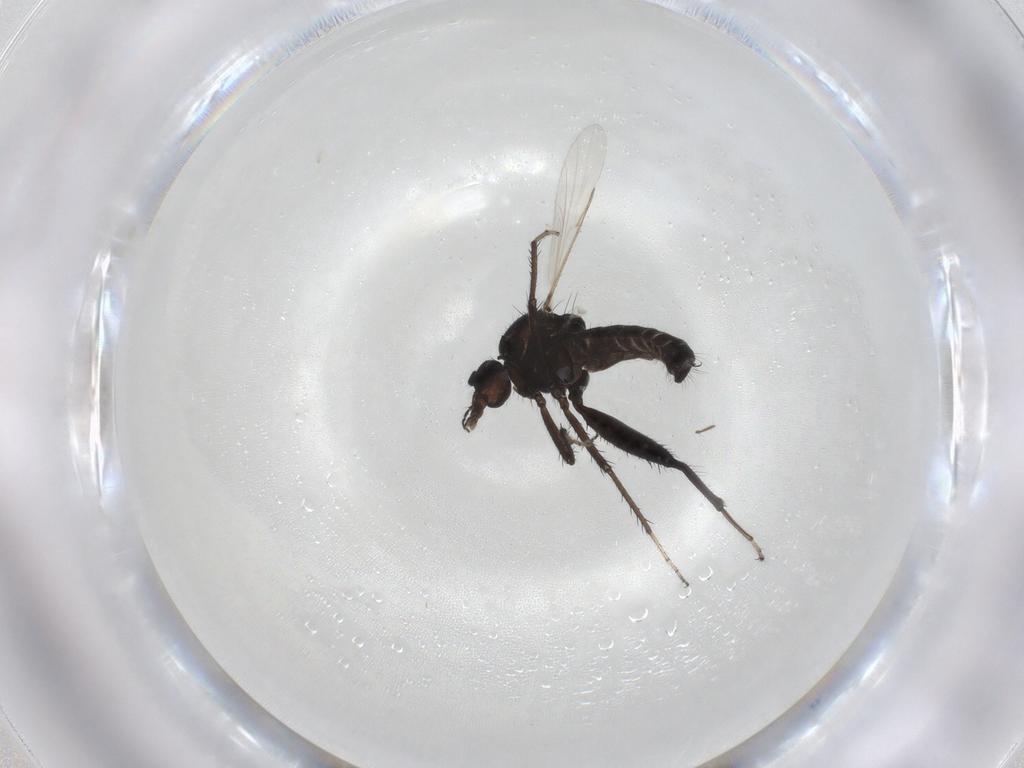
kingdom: Animalia
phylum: Arthropoda
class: Insecta
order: Diptera
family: Ceratopogonidae
